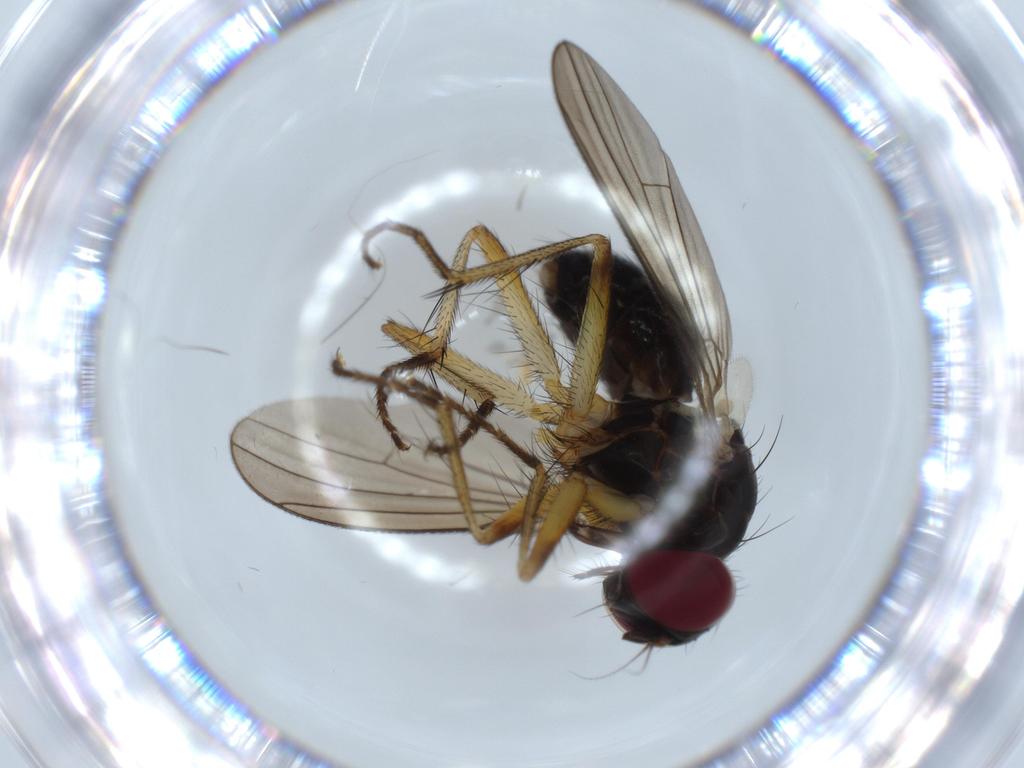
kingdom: Animalia
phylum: Arthropoda
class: Insecta
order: Diptera
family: Muscidae
